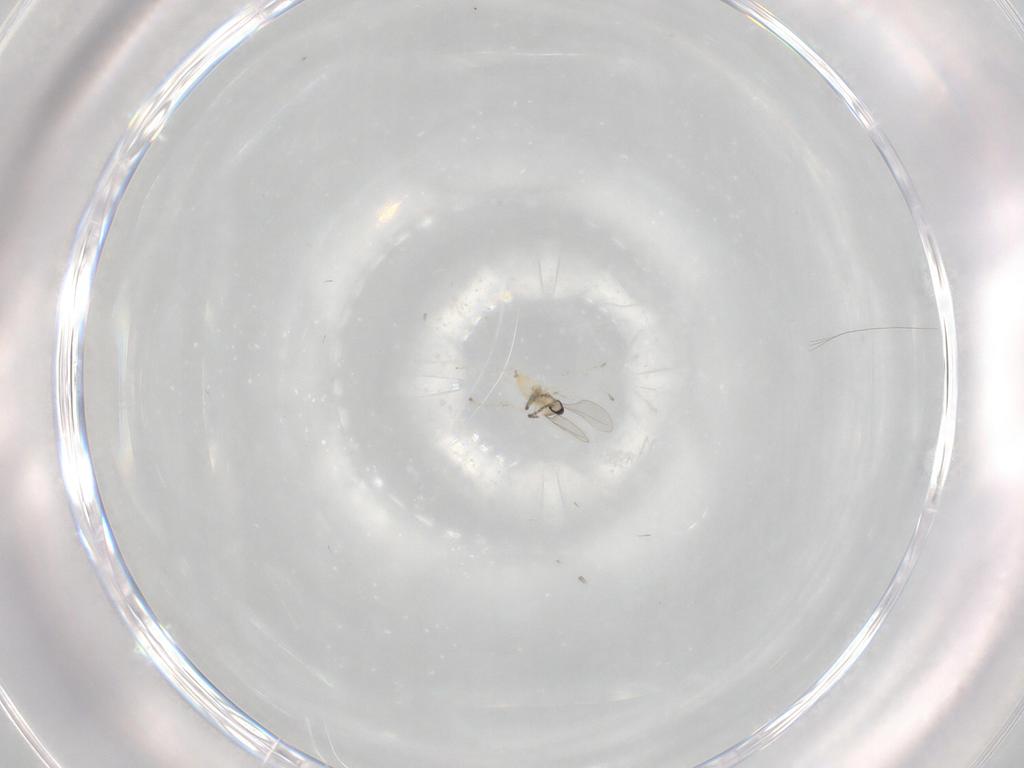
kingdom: Animalia
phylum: Arthropoda
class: Insecta
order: Diptera
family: Cecidomyiidae
